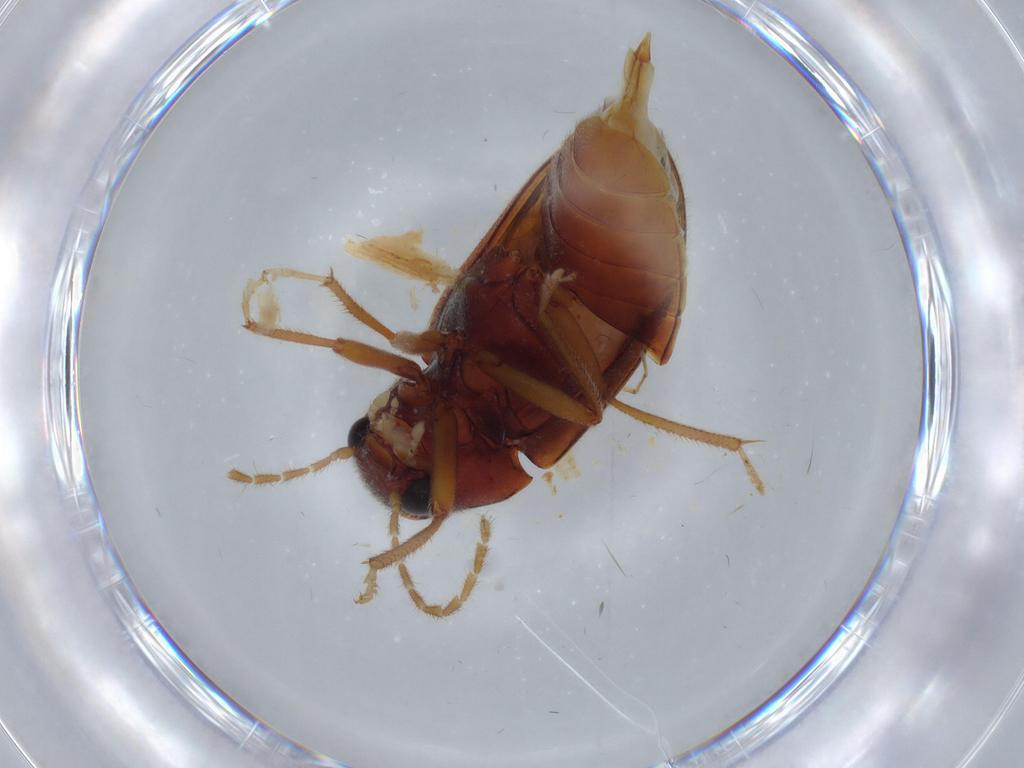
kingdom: Animalia
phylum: Arthropoda
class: Insecta
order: Coleoptera
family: Ptilodactylidae
